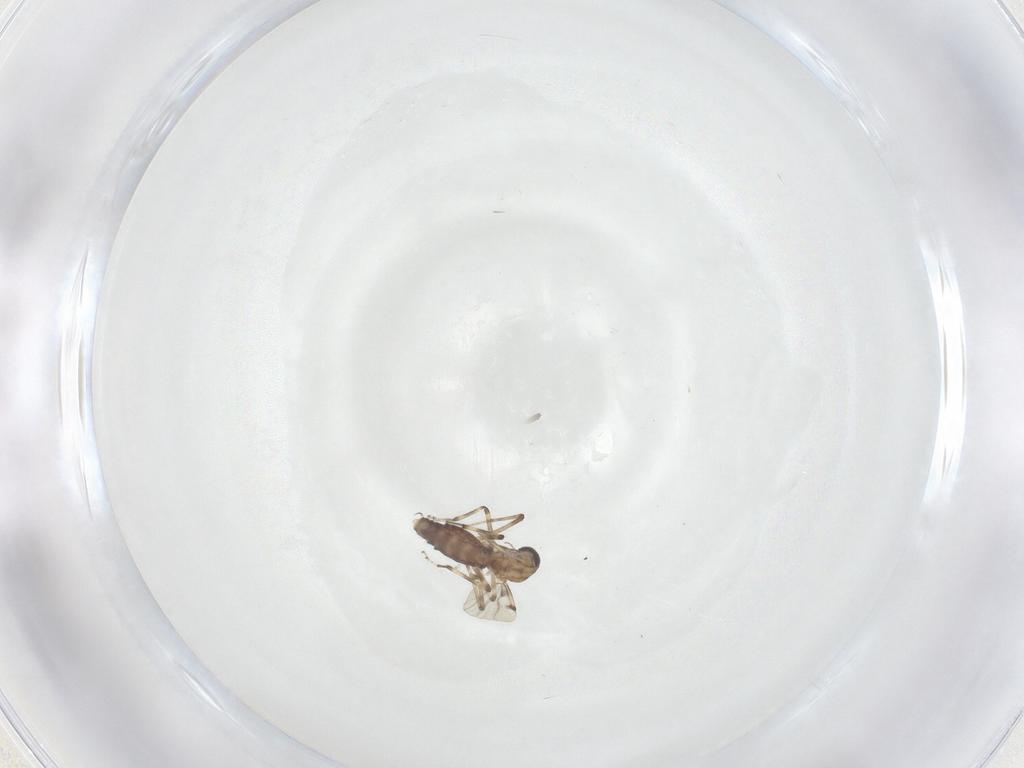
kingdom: Animalia
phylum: Arthropoda
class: Insecta
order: Diptera
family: Ceratopogonidae
